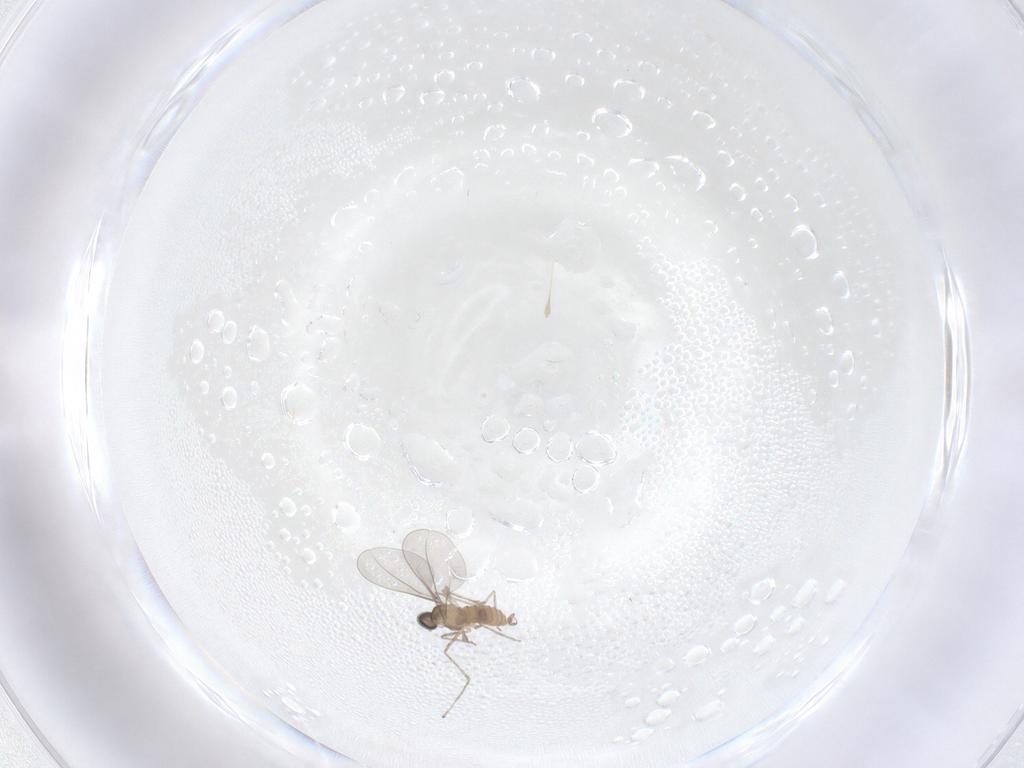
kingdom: Animalia
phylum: Arthropoda
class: Insecta
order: Diptera
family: Cecidomyiidae
